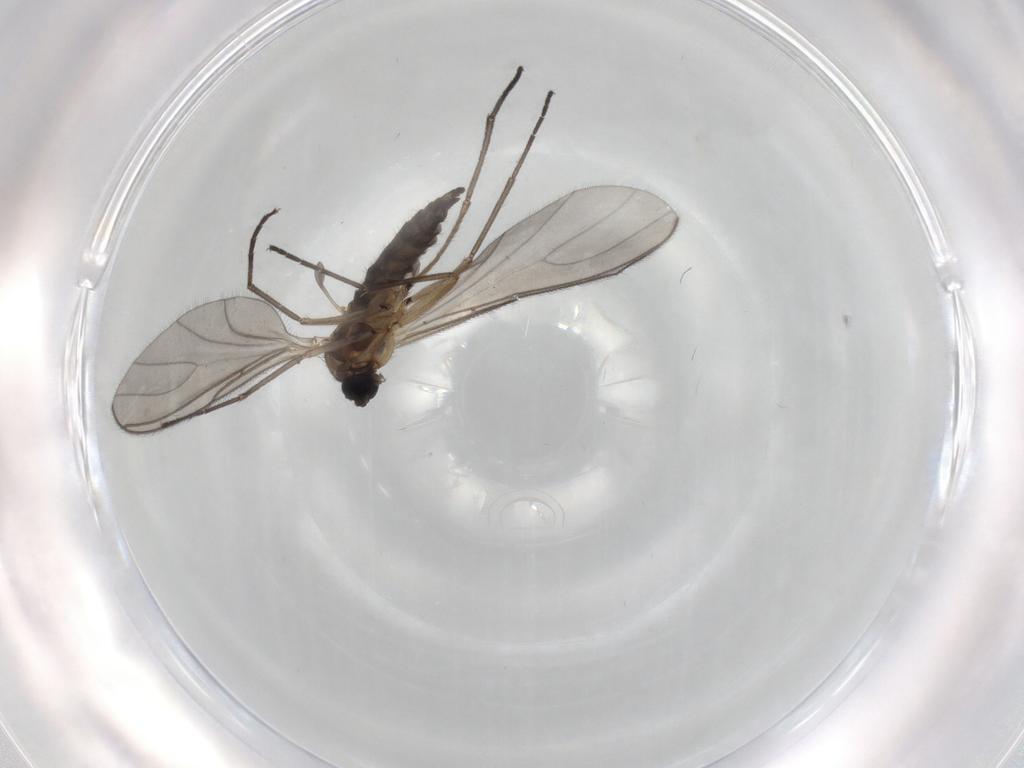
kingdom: Animalia
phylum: Arthropoda
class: Insecta
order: Diptera
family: Sciaridae
